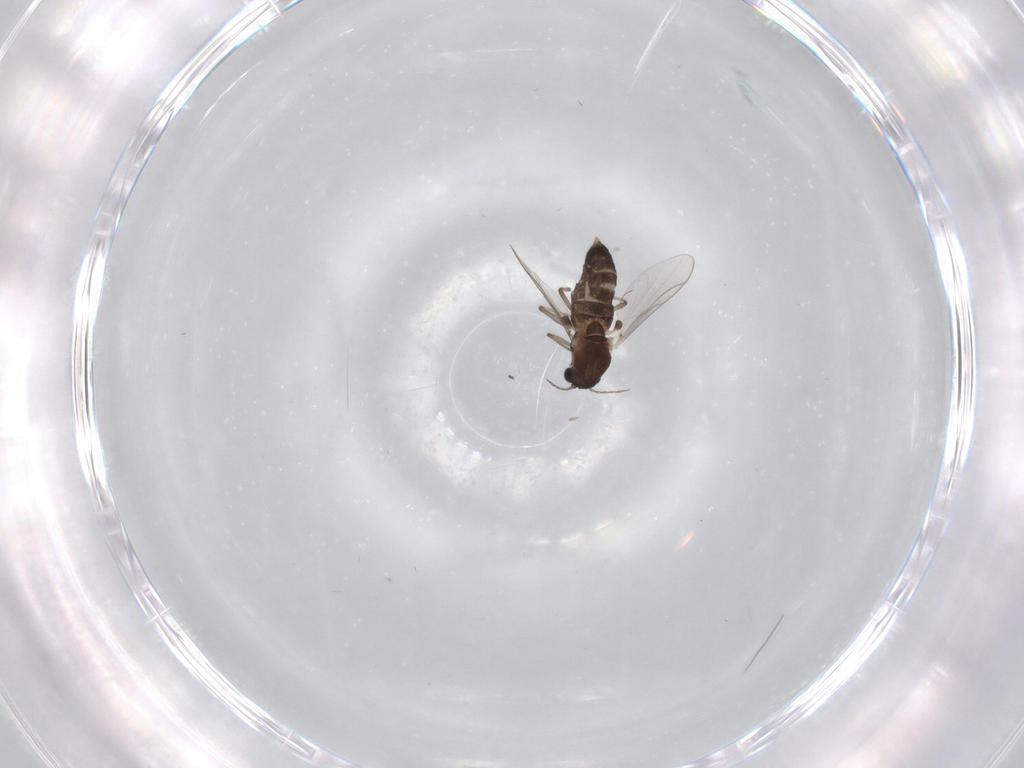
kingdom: Animalia
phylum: Arthropoda
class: Insecta
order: Diptera
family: Chironomidae
